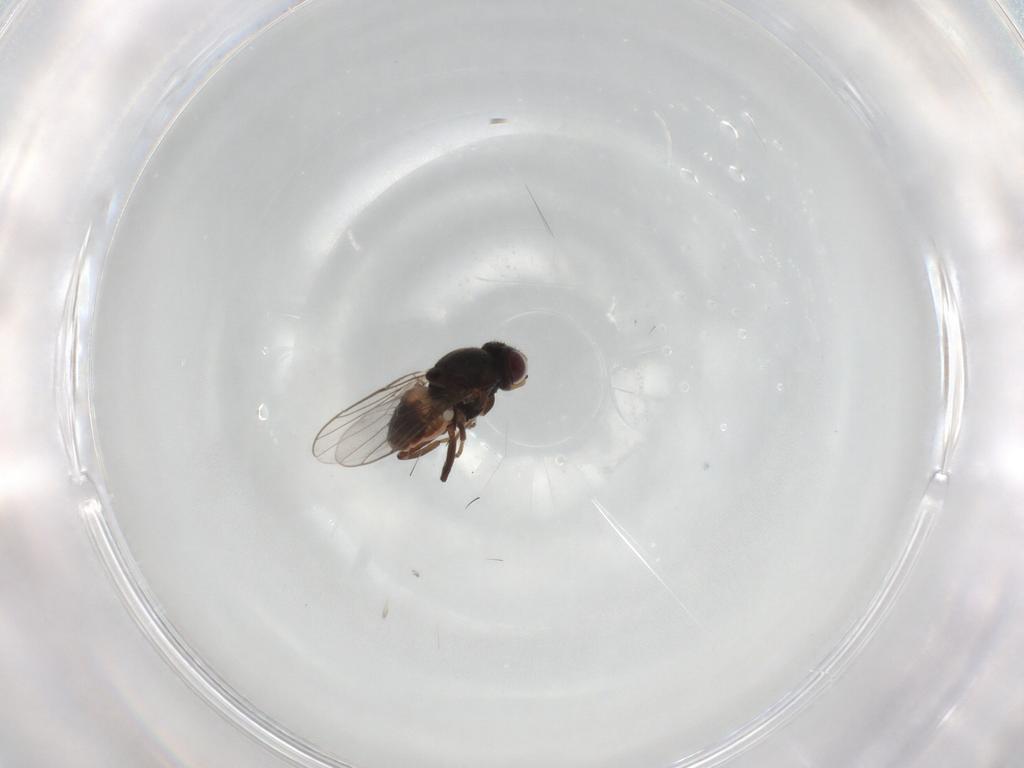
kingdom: Animalia
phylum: Arthropoda
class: Insecta
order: Diptera
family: Chloropidae
